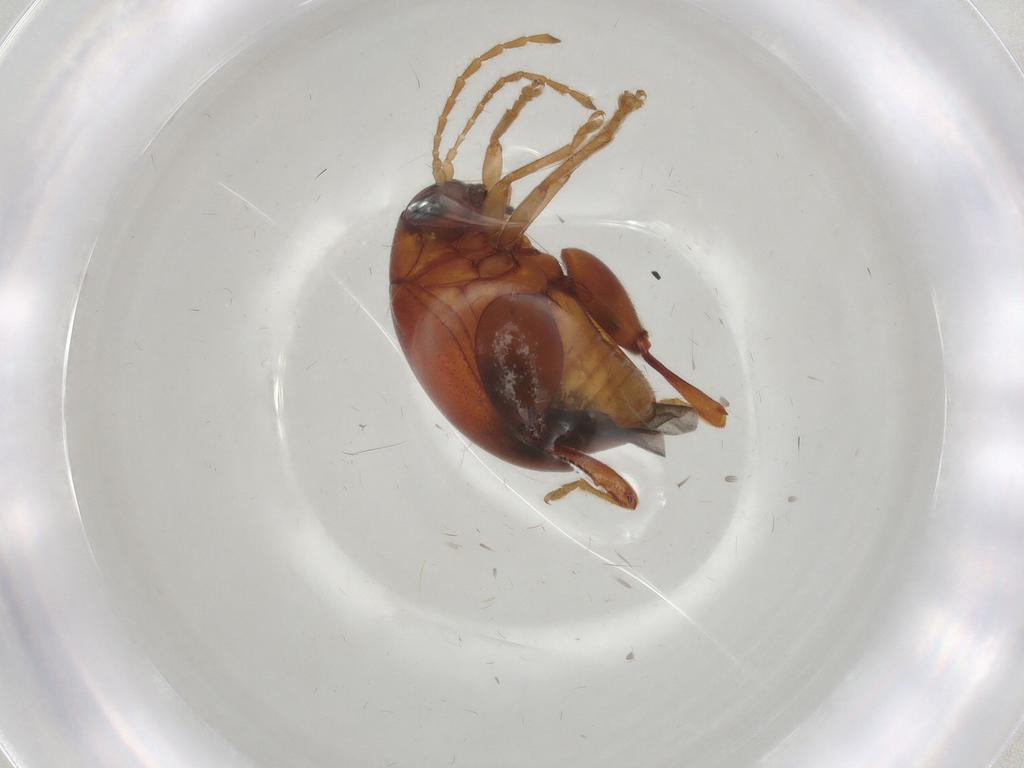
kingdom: Animalia
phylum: Arthropoda
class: Insecta
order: Coleoptera
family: Chrysomelidae
